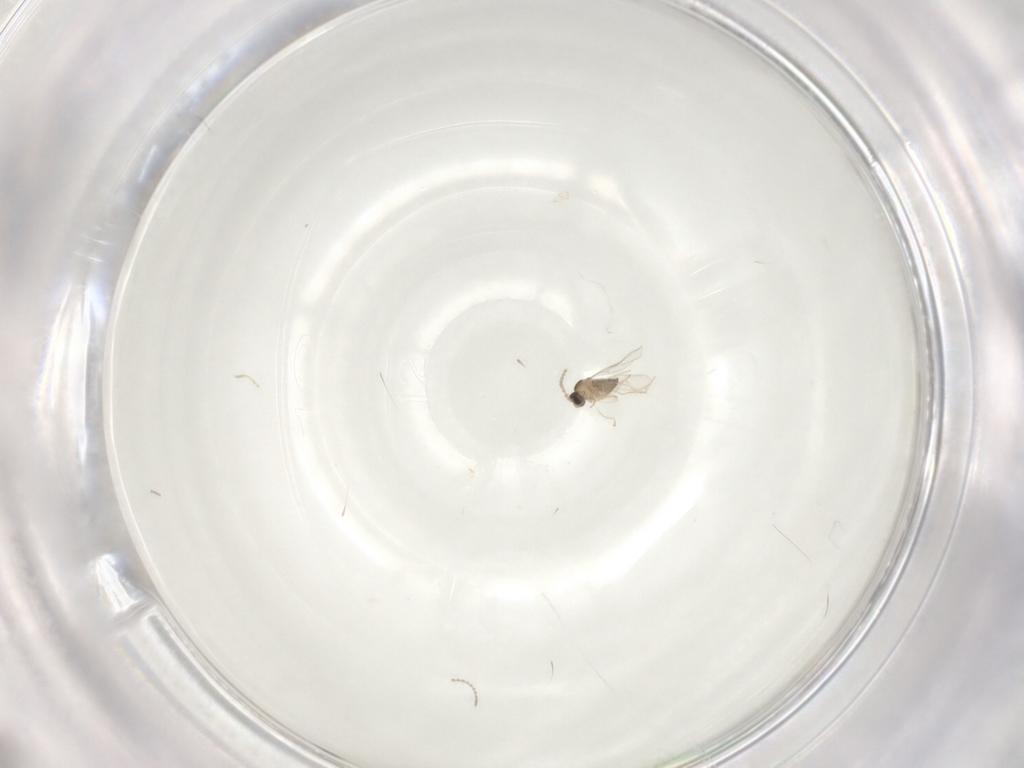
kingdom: Animalia
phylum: Arthropoda
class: Insecta
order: Diptera
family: Cecidomyiidae
